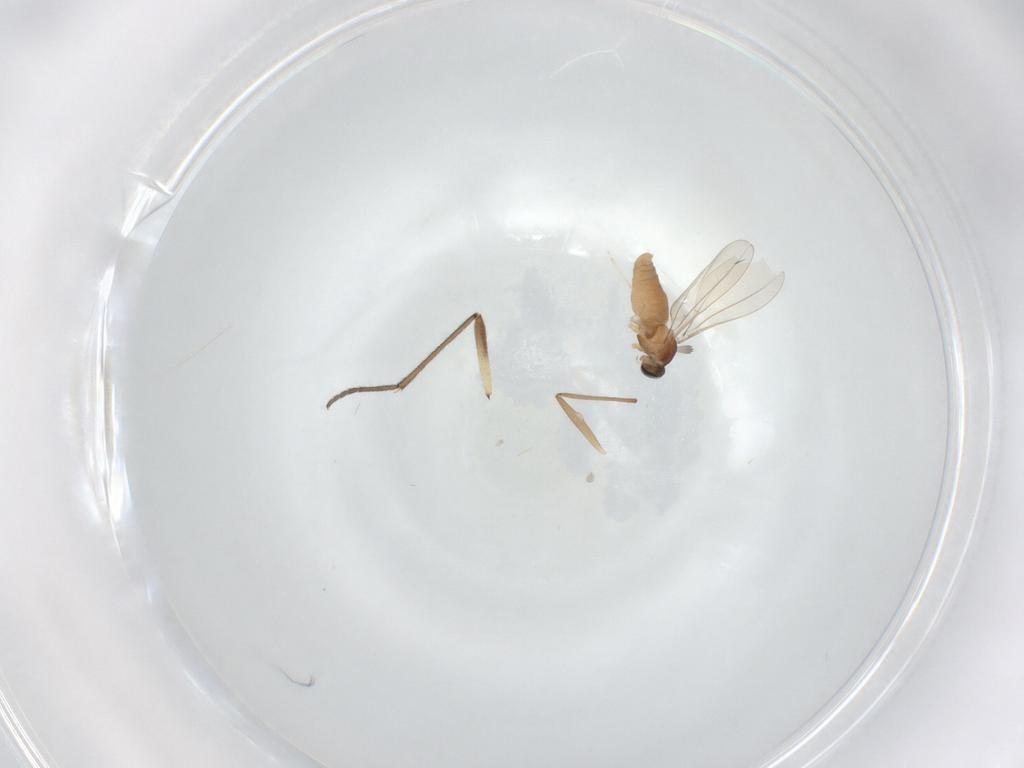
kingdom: Animalia
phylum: Arthropoda
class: Insecta
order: Diptera
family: Cecidomyiidae
